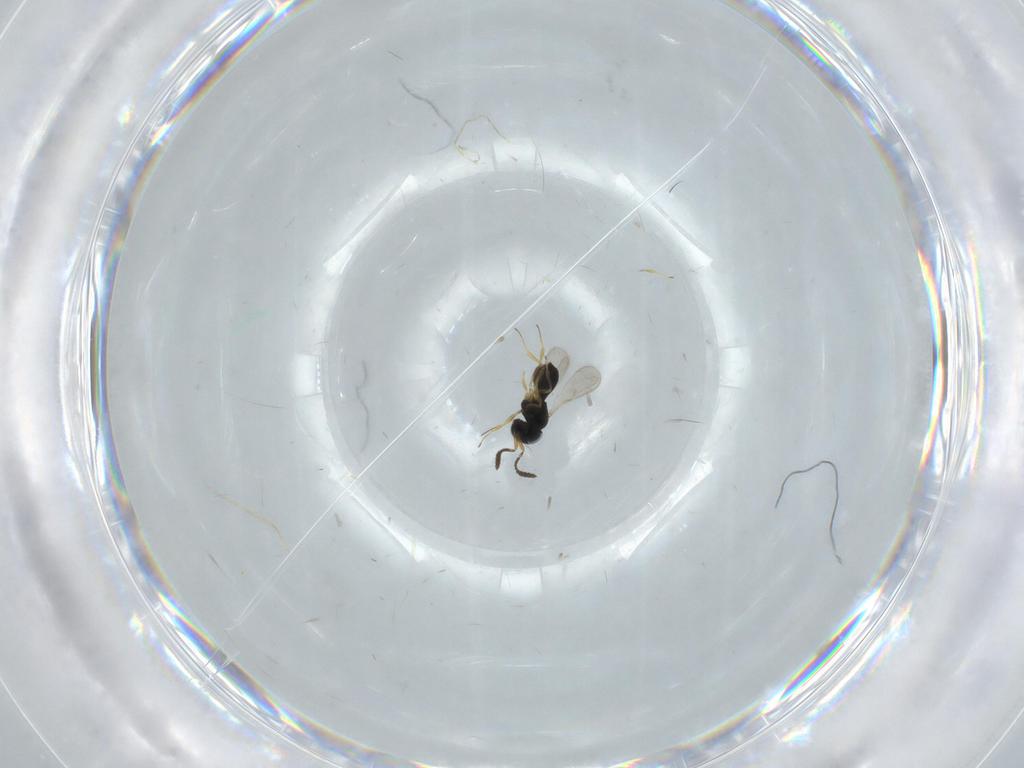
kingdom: Animalia
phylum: Arthropoda
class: Insecta
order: Hymenoptera
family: Scelionidae
